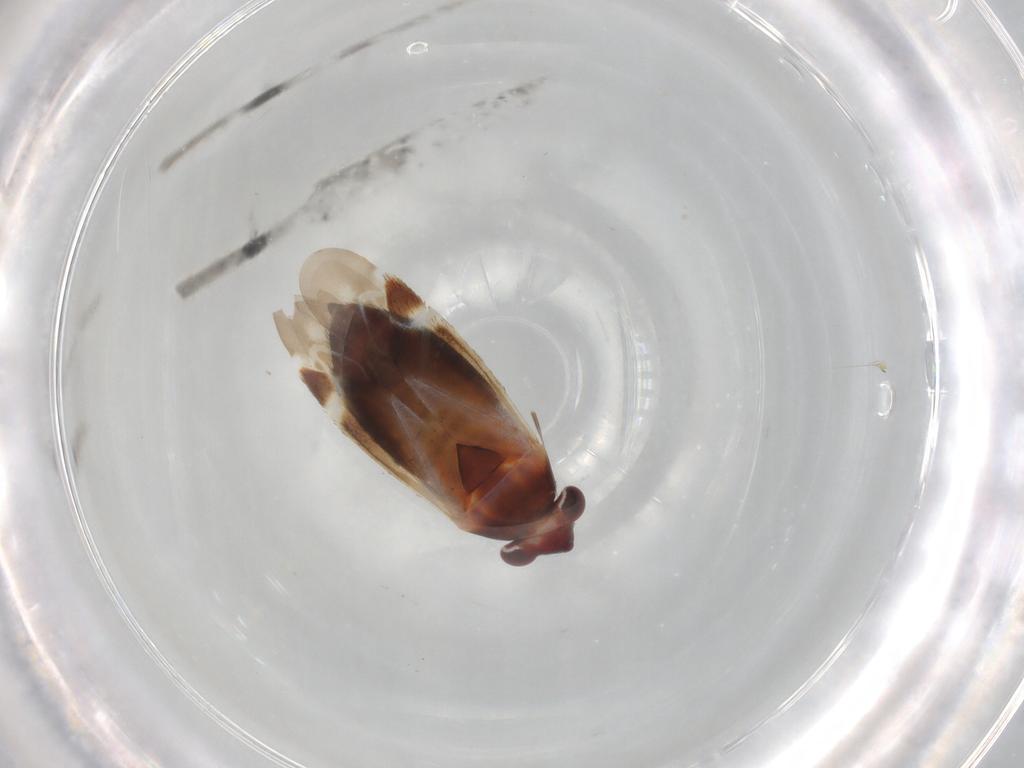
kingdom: Animalia
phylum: Arthropoda
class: Insecta
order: Hemiptera
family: Miridae
